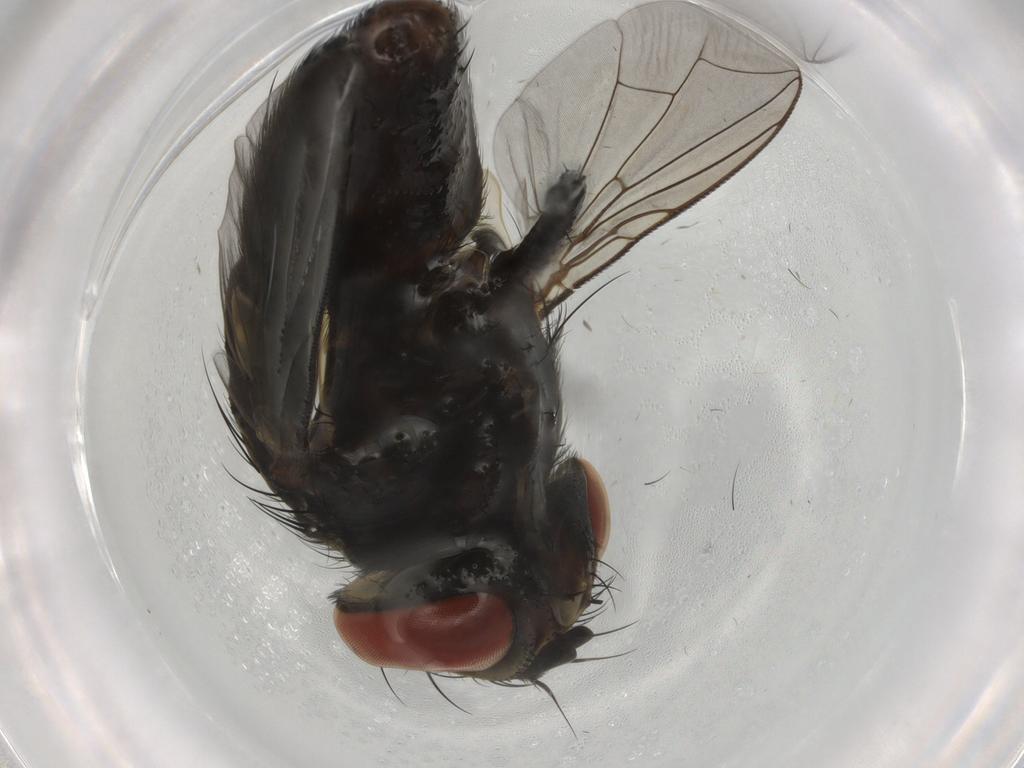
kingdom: Animalia
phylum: Arthropoda
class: Insecta
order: Diptera
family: Sarcophagidae
